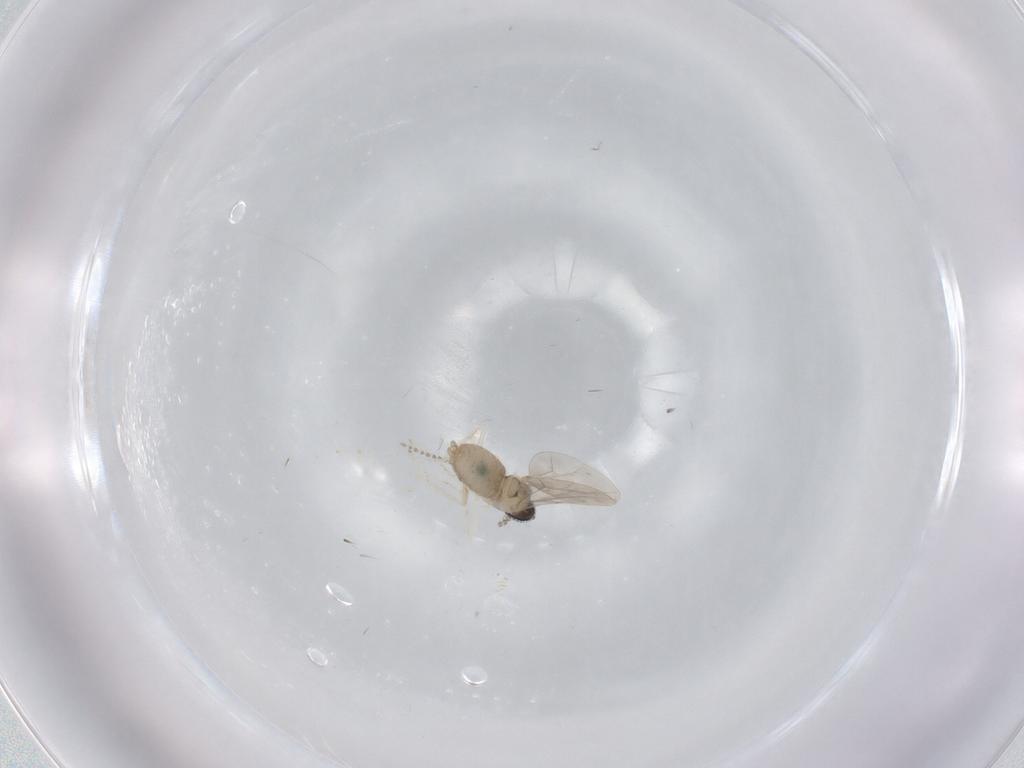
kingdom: Animalia
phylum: Arthropoda
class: Insecta
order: Diptera
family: Cecidomyiidae
